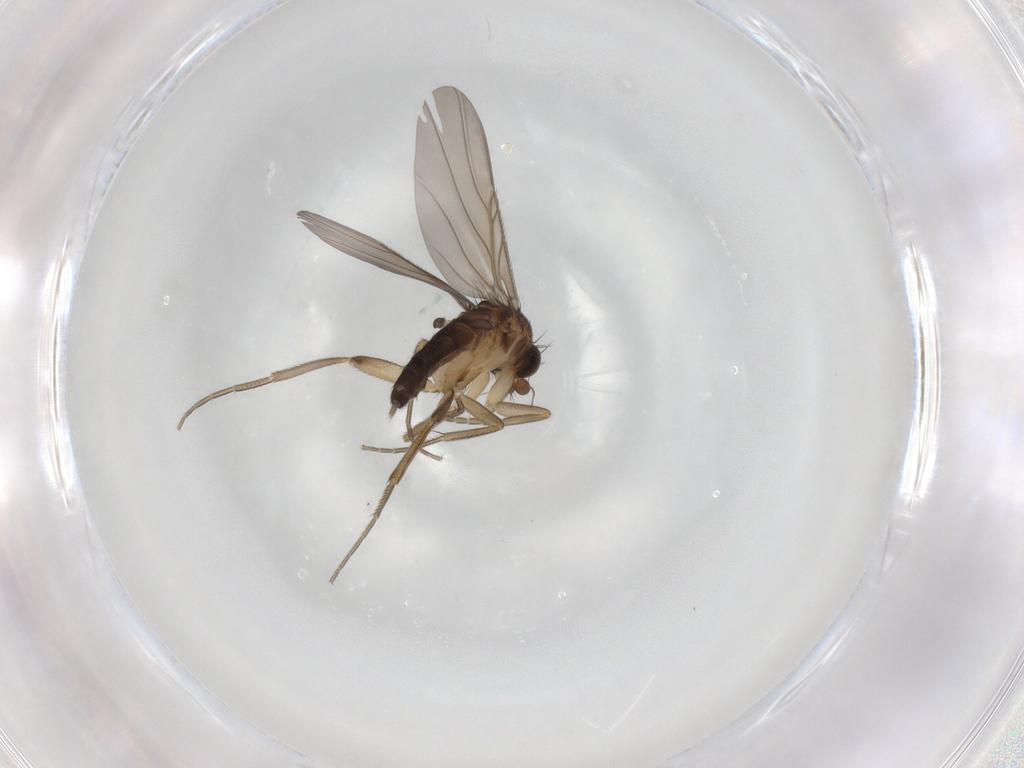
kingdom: Animalia
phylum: Arthropoda
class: Insecta
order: Diptera
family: Phoridae
